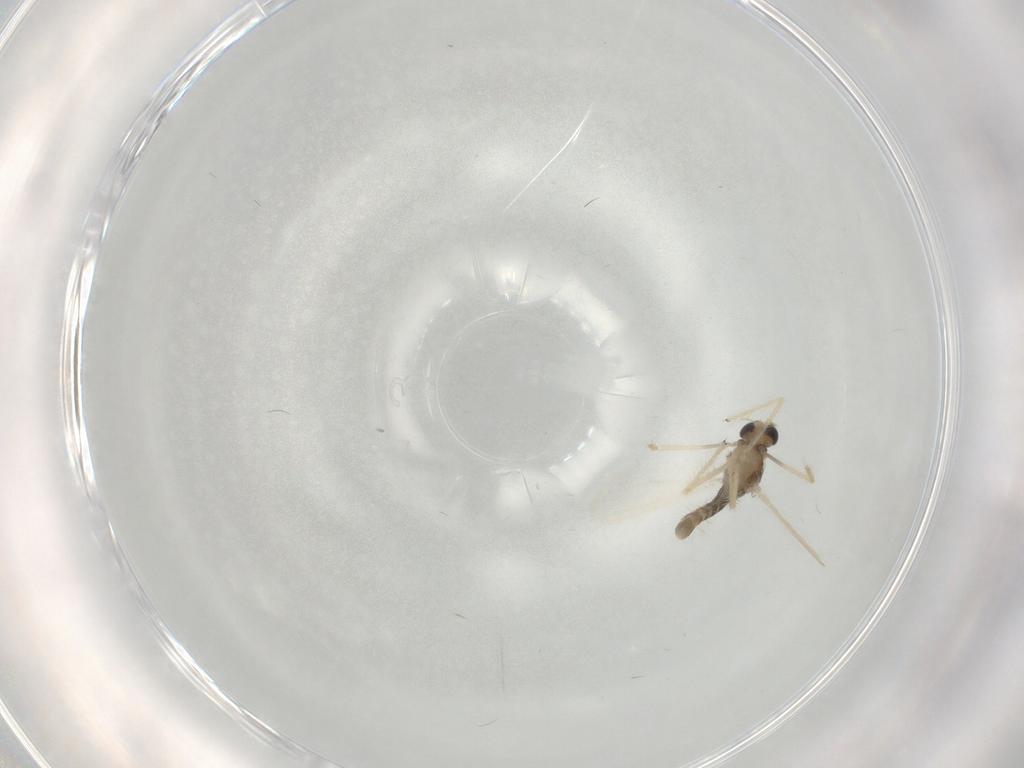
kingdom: Animalia
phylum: Arthropoda
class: Insecta
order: Diptera
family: Chironomidae
